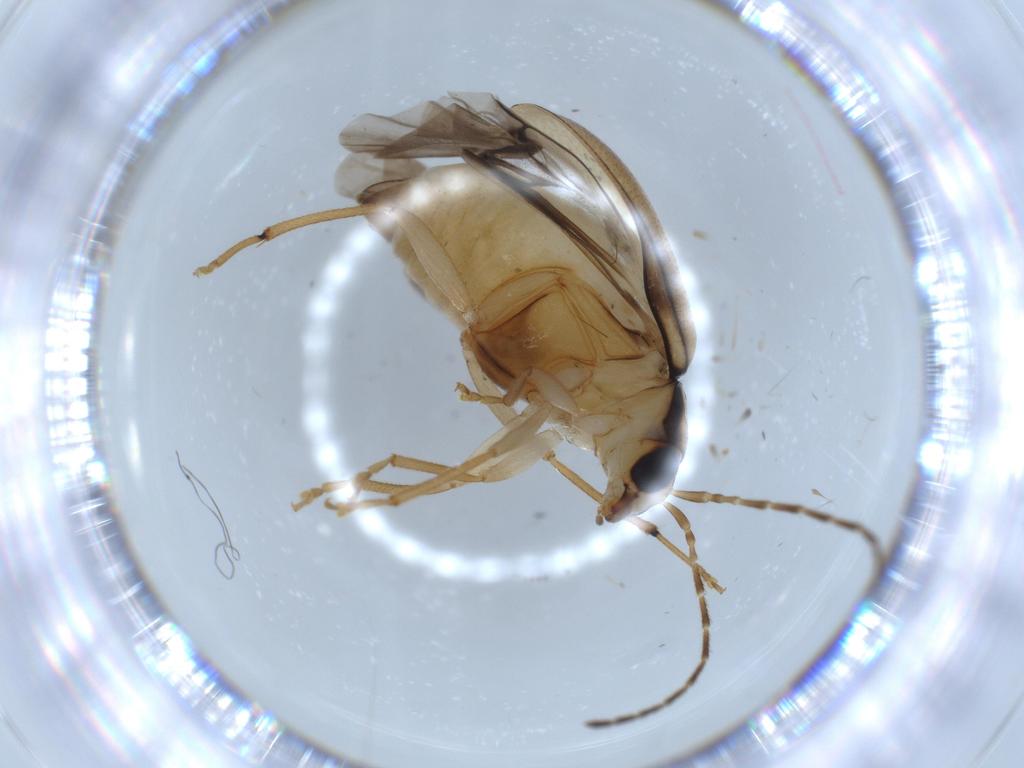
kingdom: Animalia
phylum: Arthropoda
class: Insecta
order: Coleoptera
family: Chrysomelidae
